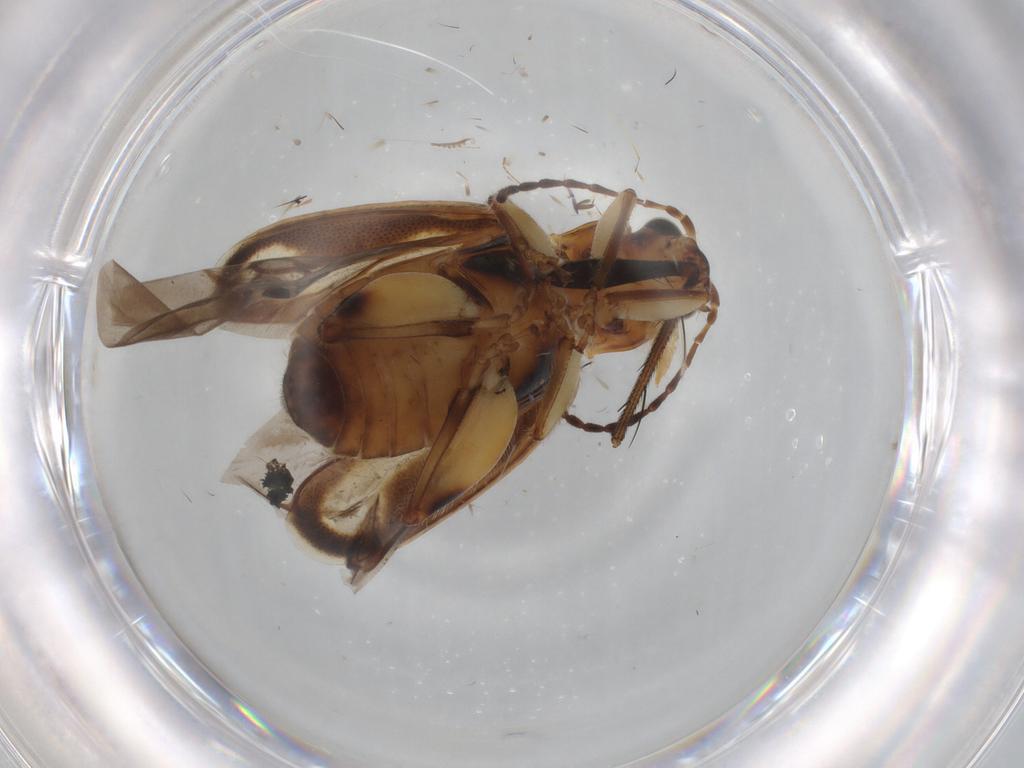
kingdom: Animalia
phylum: Arthropoda
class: Insecta
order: Coleoptera
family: Chrysomelidae
